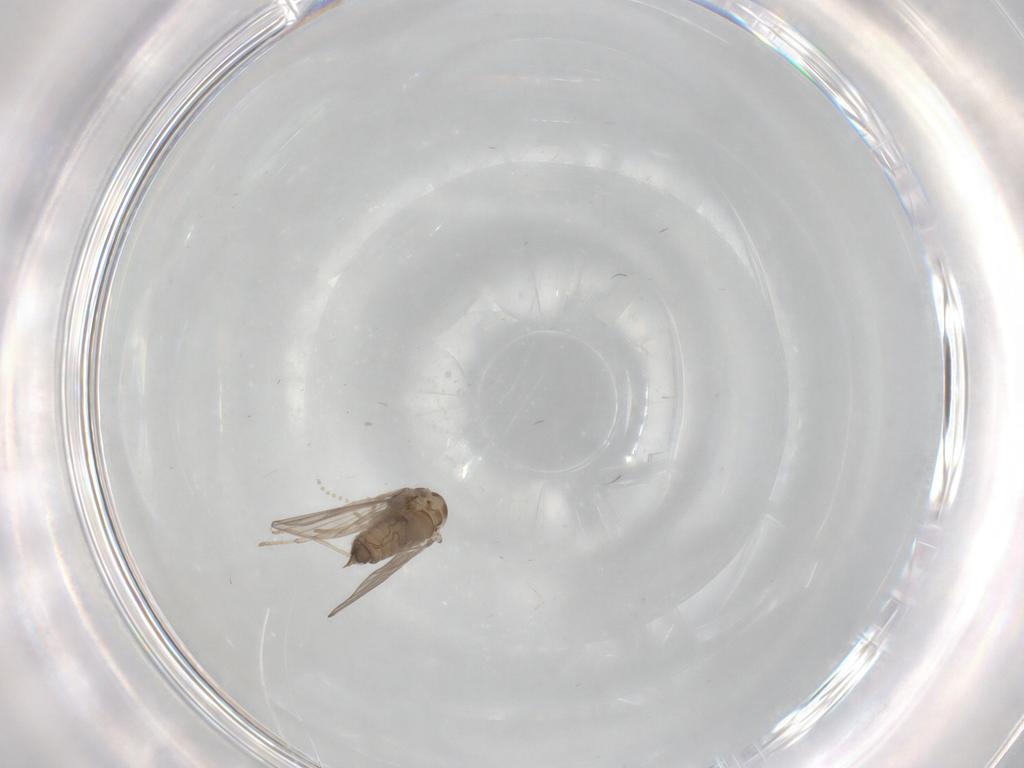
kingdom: Animalia
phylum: Arthropoda
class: Insecta
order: Diptera
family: Psychodidae
